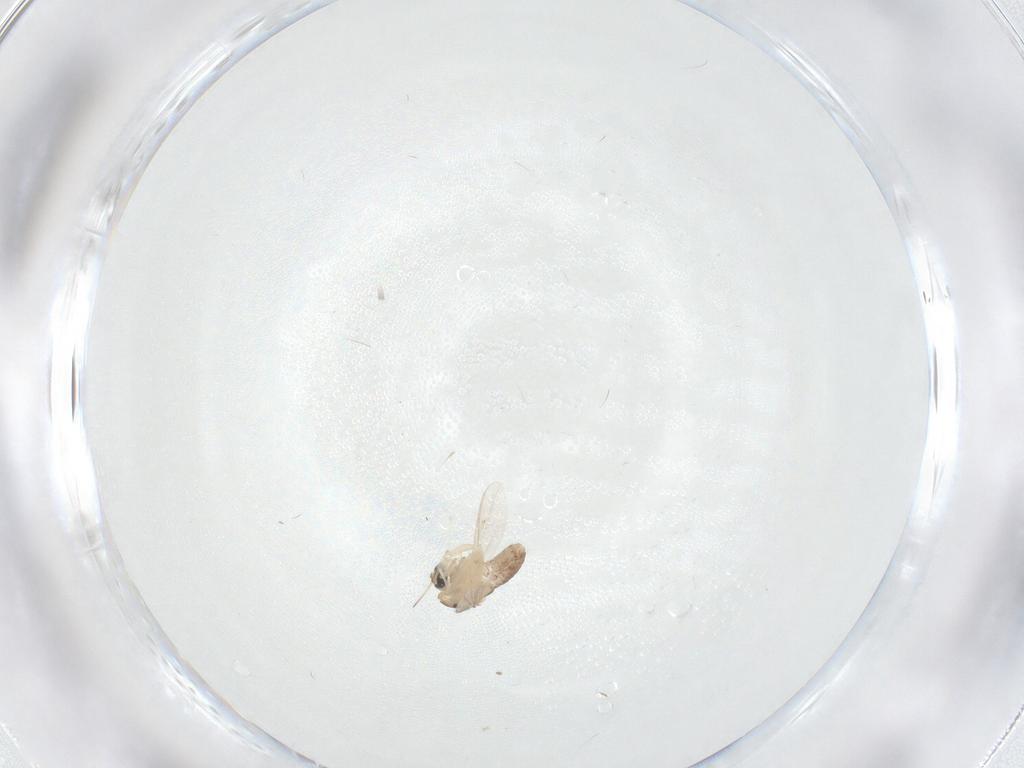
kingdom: Animalia
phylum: Arthropoda
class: Insecta
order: Diptera
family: Chironomidae
